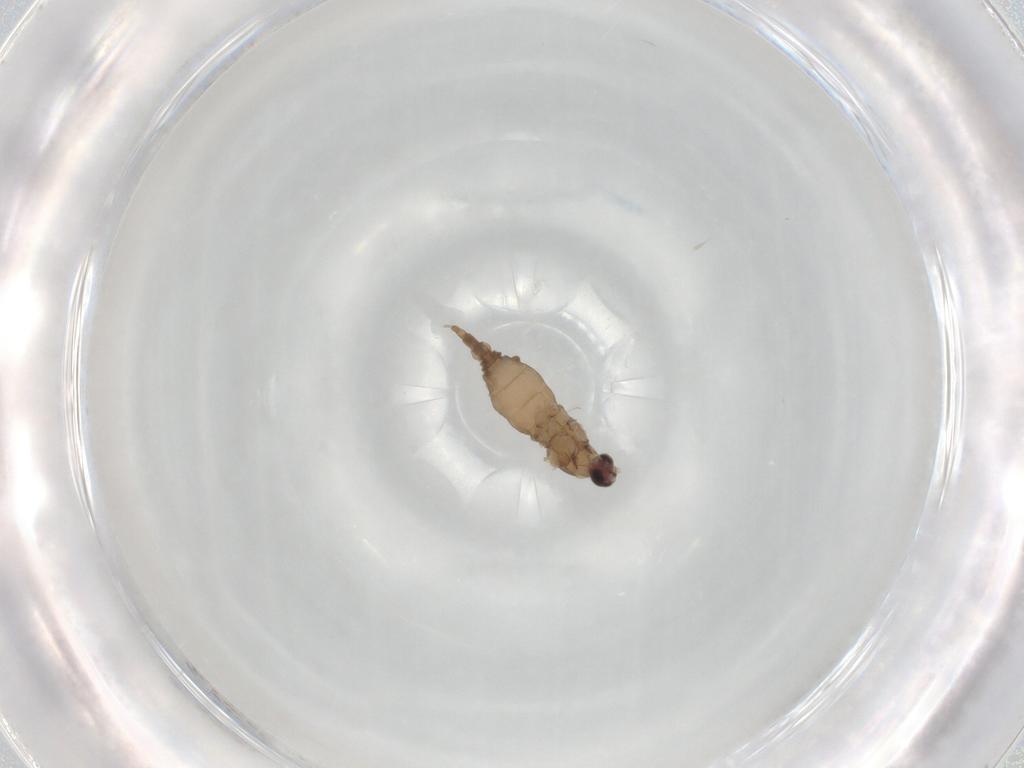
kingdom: Animalia
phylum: Arthropoda
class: Insecta
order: Diptera
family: Cecidomyiidae
